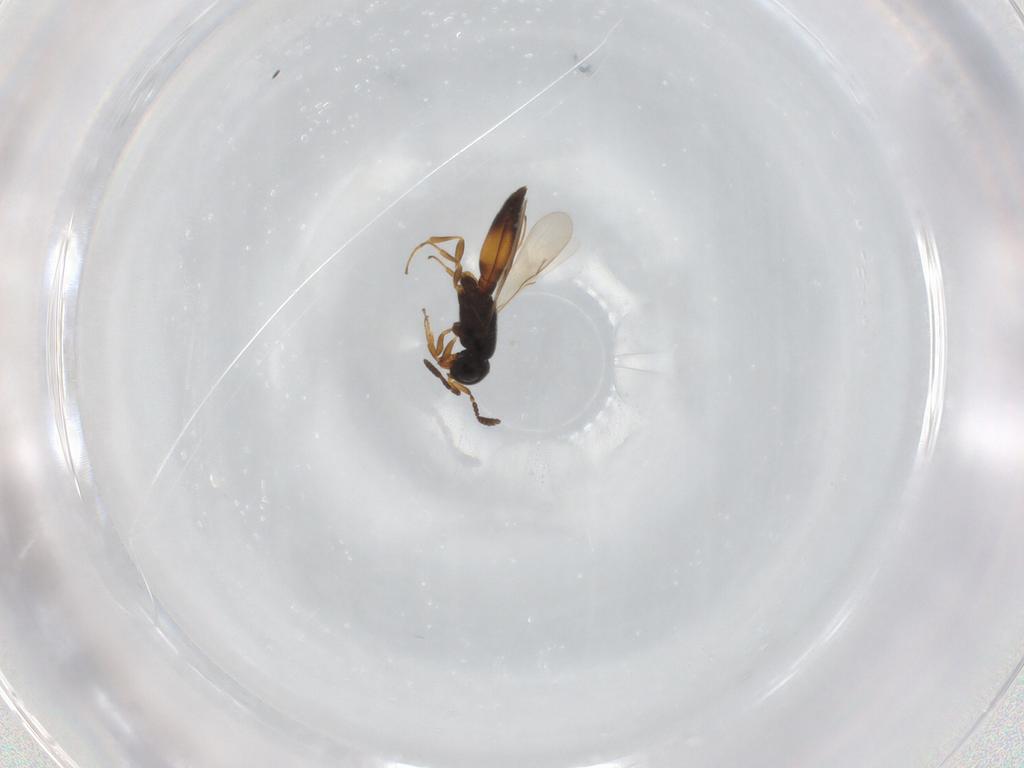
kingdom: Animalia
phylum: Arthropoda
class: Insecta
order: Hymenoptera
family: Scelionidae
